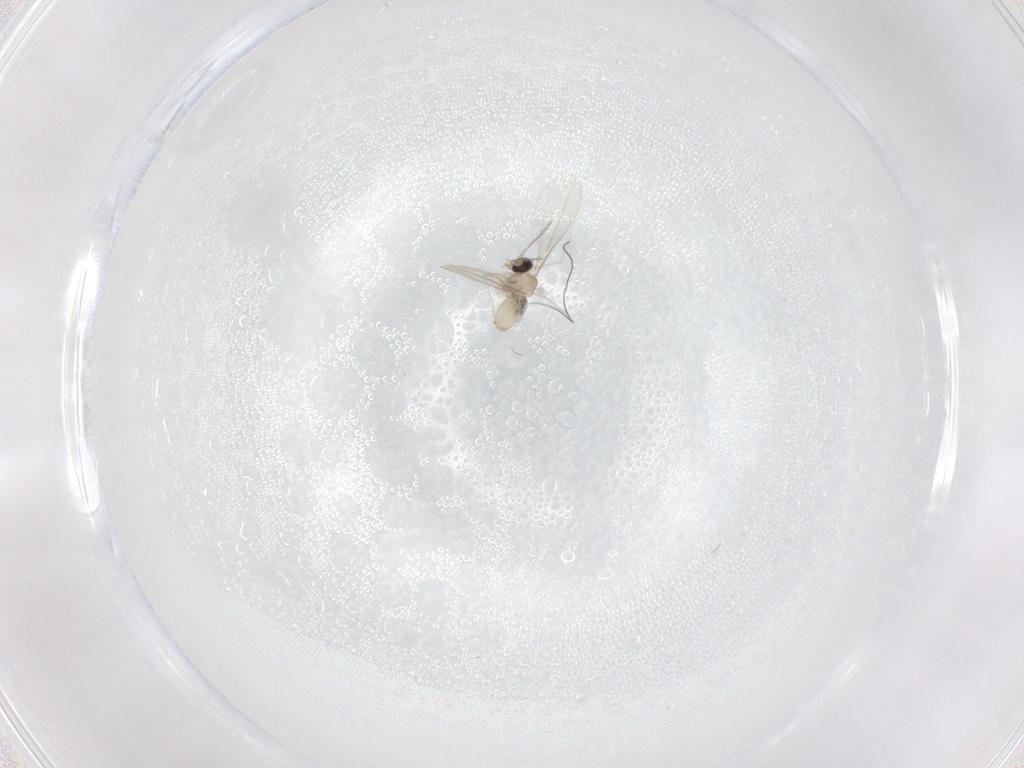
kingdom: Animalia
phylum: Arthropoda
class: Insecta
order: Diptera
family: Cecidomyiidae
